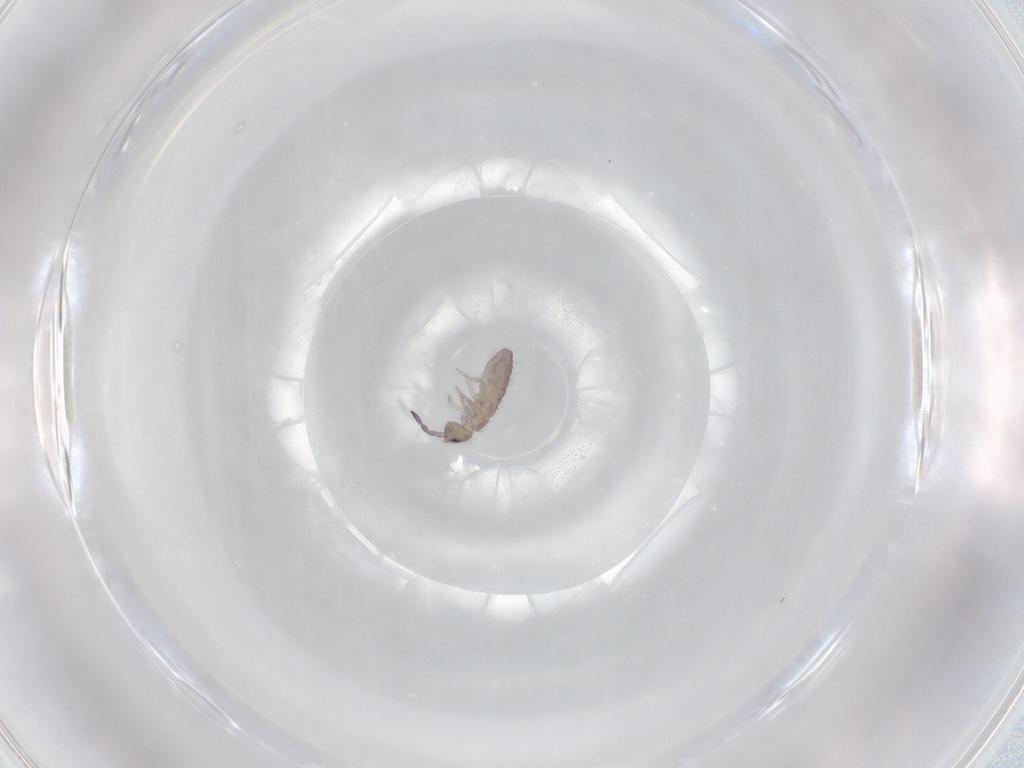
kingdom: Animalia
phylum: Arthropoda
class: Collembola
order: Entomobryomorpha
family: Isotomidae
